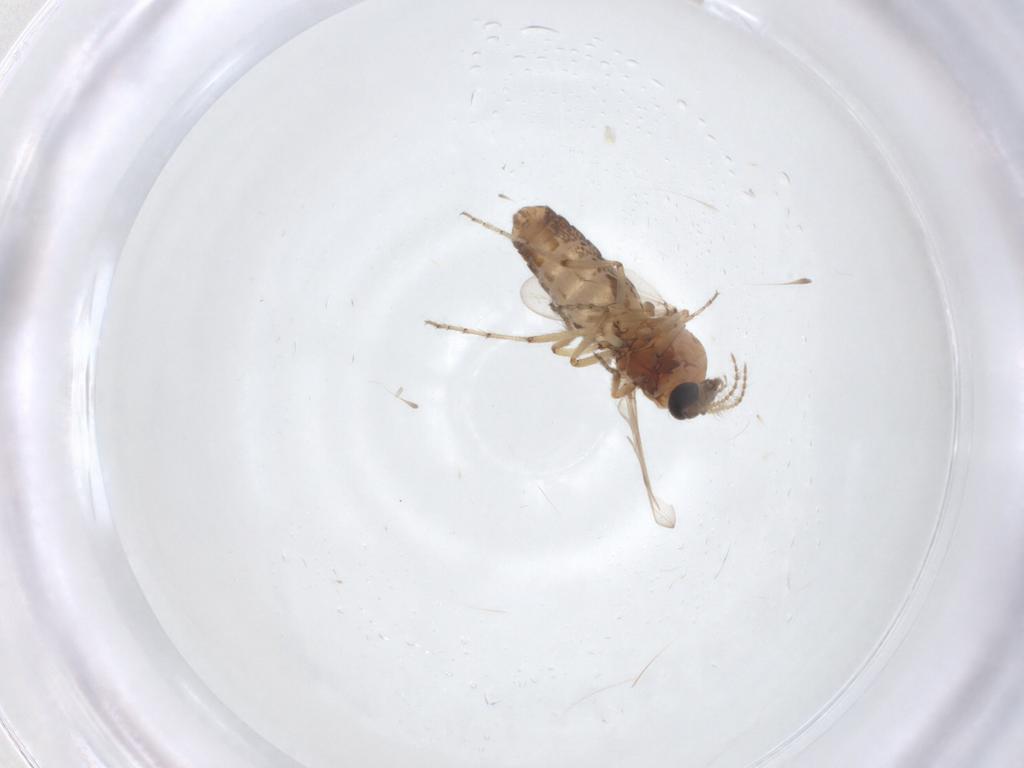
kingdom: Animalia
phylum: Arthropoda
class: Insecta
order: Diptera
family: Ceratopogonidae
